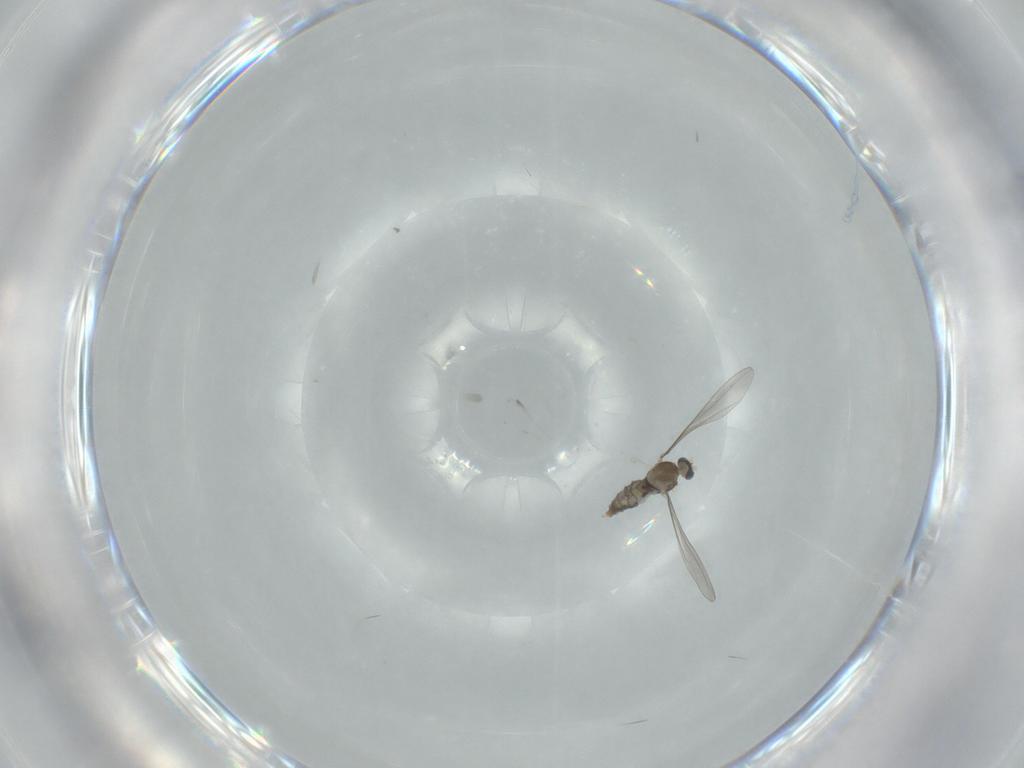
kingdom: Animalia
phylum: Arthropoda
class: Insecta
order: Diptera
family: Cecidomyiidae
